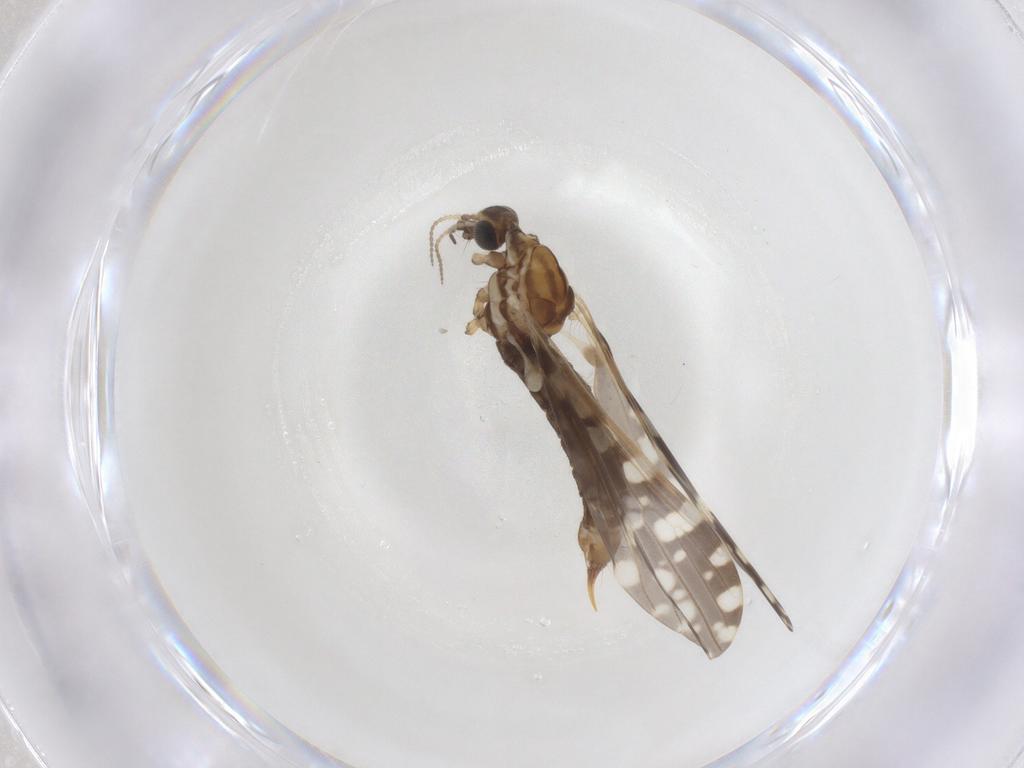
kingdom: Animalia
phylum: Arthropoda
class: Insecta
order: Diptera
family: Limoniidae
